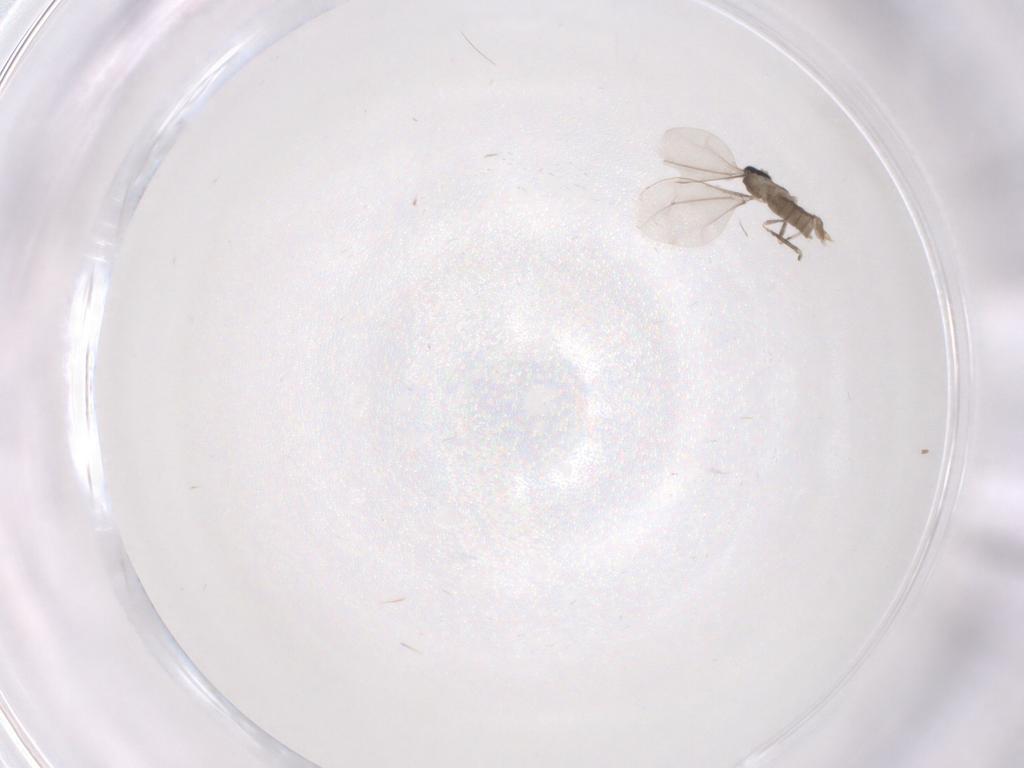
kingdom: Animalia
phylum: Arthropoda
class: Insecta
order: Diptera
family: Cecidomyiidae
